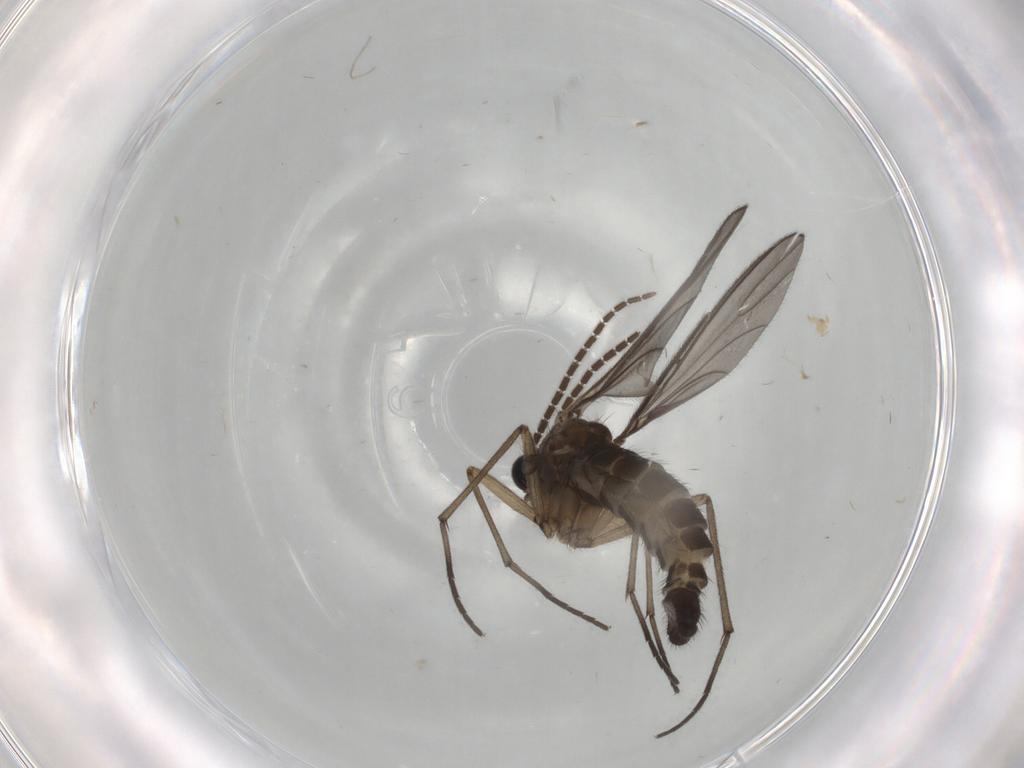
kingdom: Animalia
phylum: Arthropoda
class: Insecta
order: Diptera
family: Sciaridae
